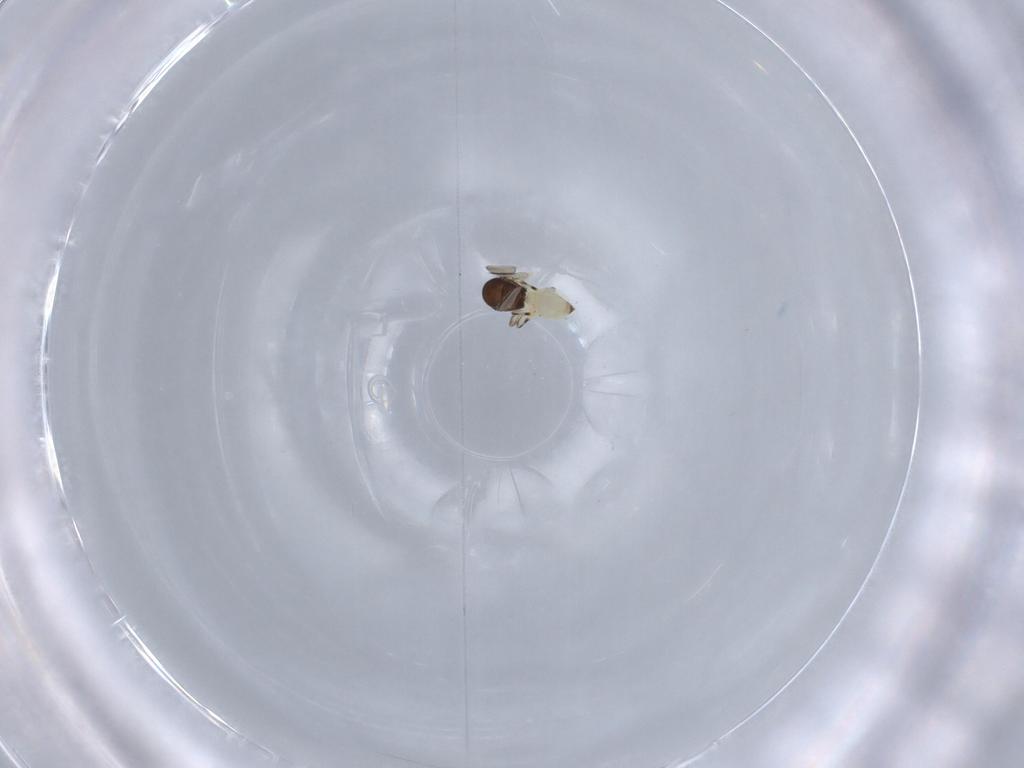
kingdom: Animalia
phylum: Arthropoda
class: Insecta
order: Hymenoptera
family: Scelionidae
